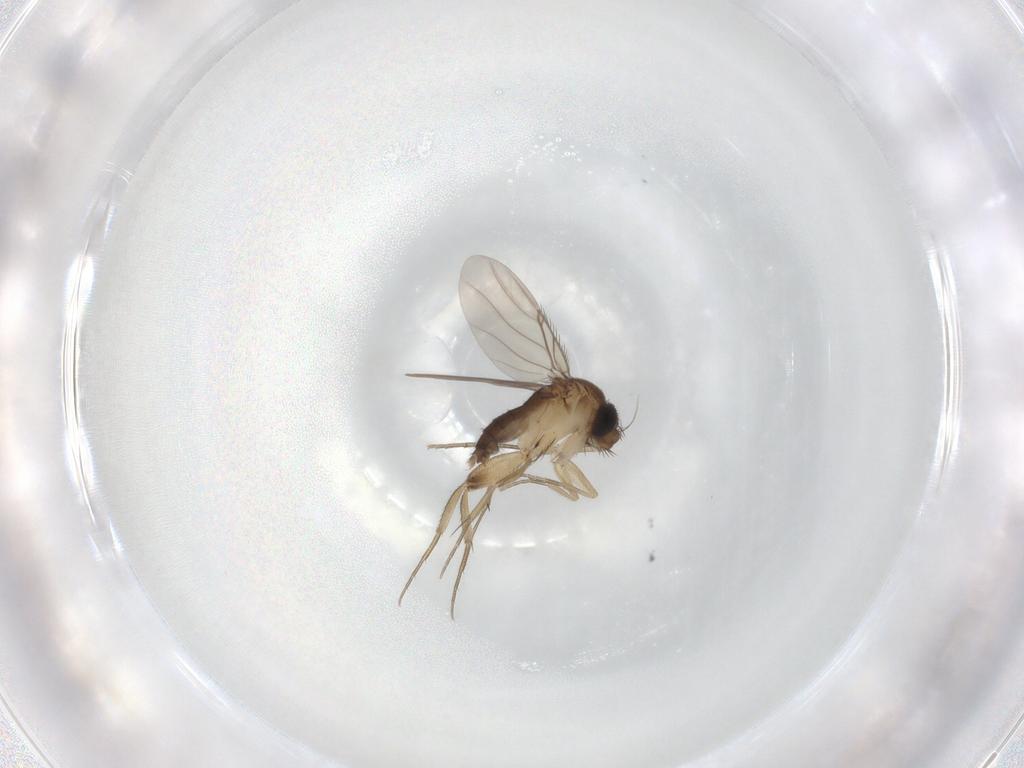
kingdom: Animalia
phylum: Arthropoda
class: Insecta
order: Diptera
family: Phoridae
